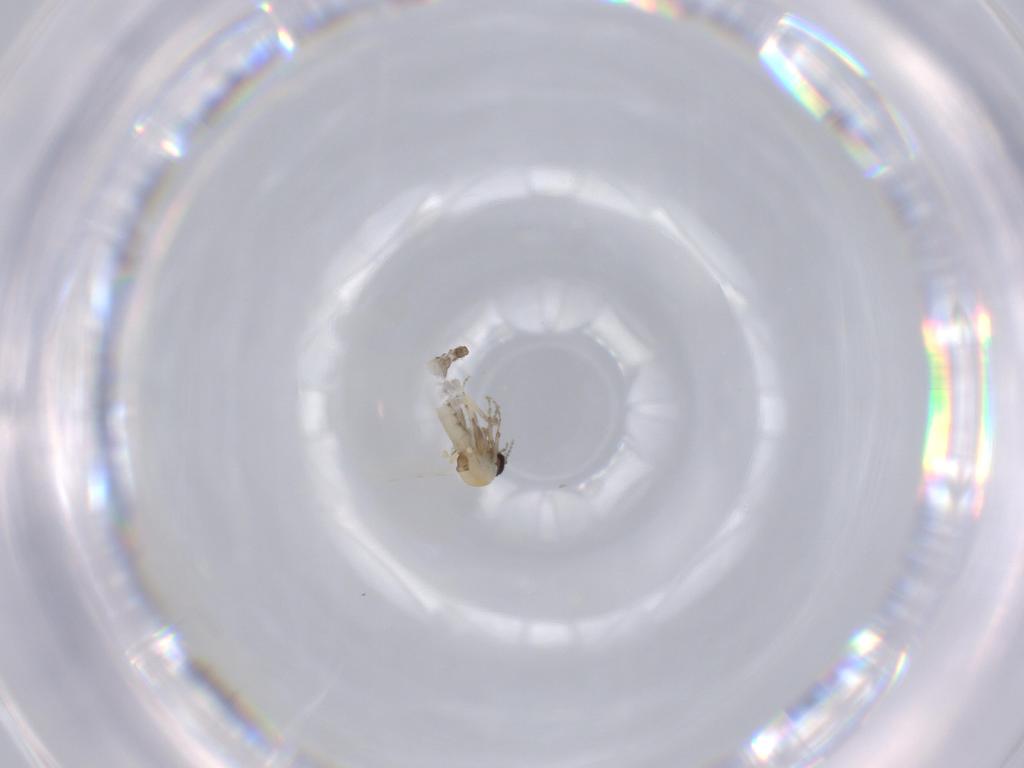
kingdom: Animalia
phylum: Arthropoda
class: Insecta
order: Diptera
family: Ceratopogonidae
